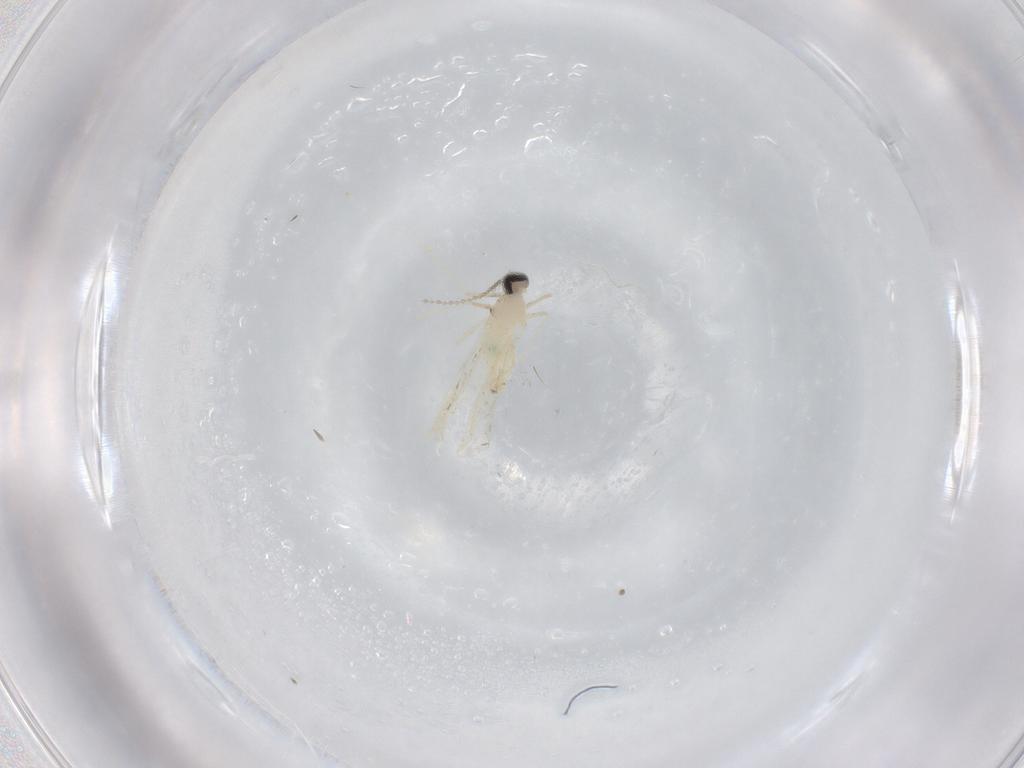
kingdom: Animalia
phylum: Arthropoda
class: Insecta
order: Diptera
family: Cecidomyiidae
